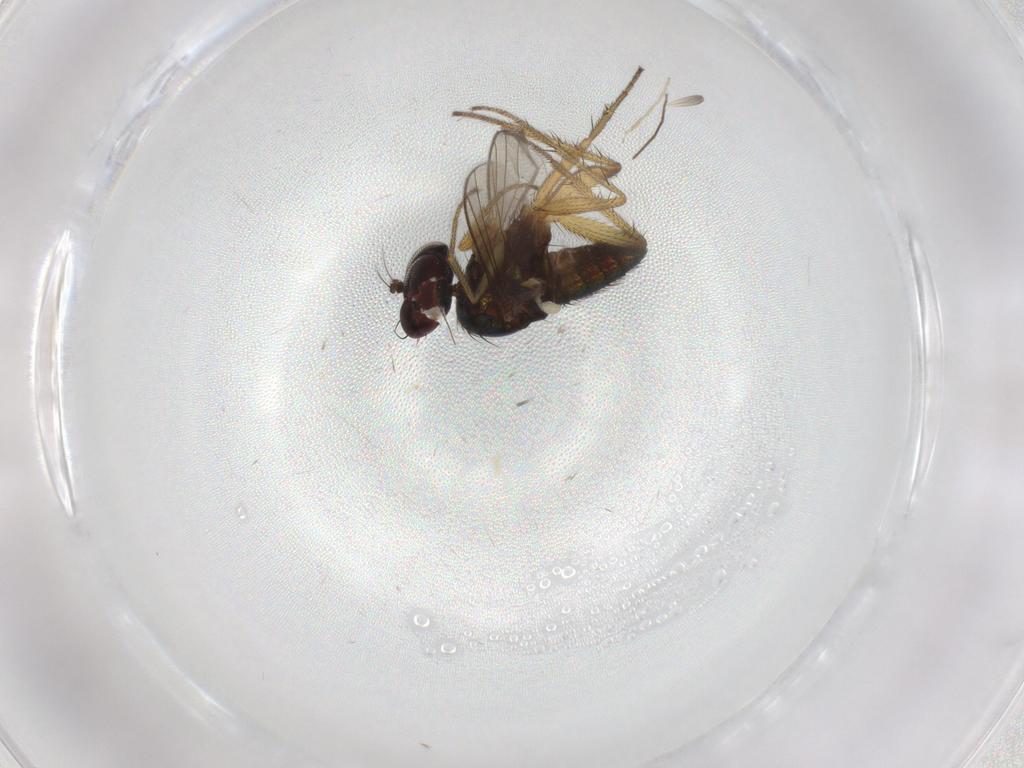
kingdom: Animalia
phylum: Arthropoda
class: Insecta
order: Diptera
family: Chironomidae
